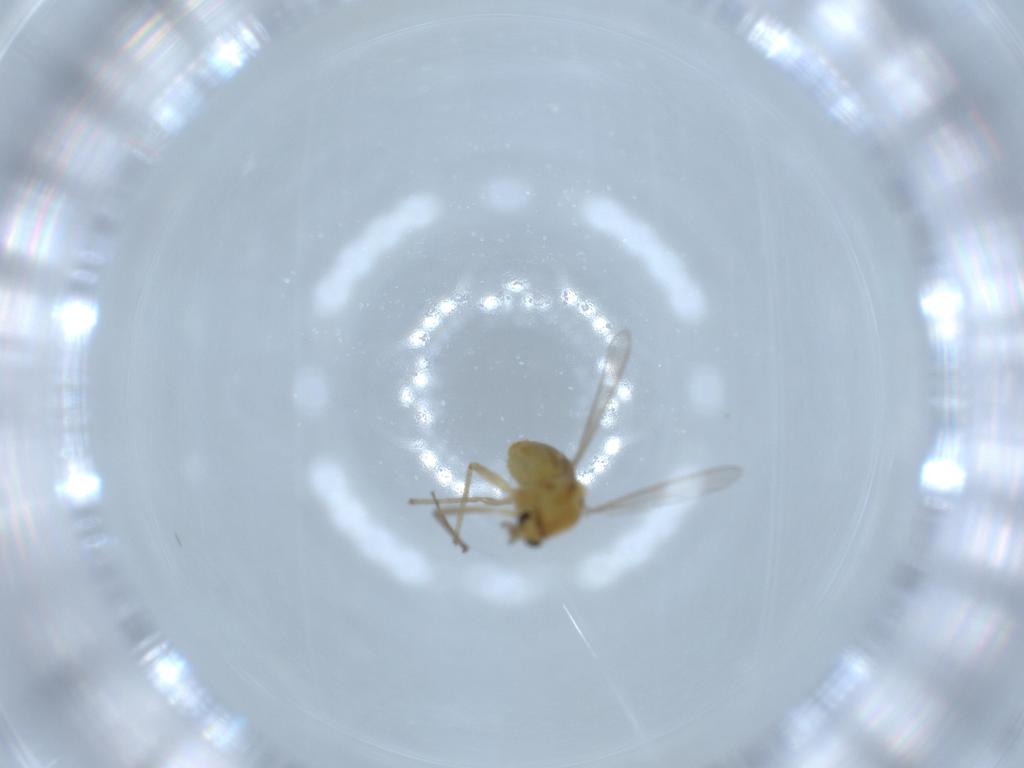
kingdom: Animalia
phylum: Arthropoda
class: Insecta
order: Diptera
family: Chironomidae
